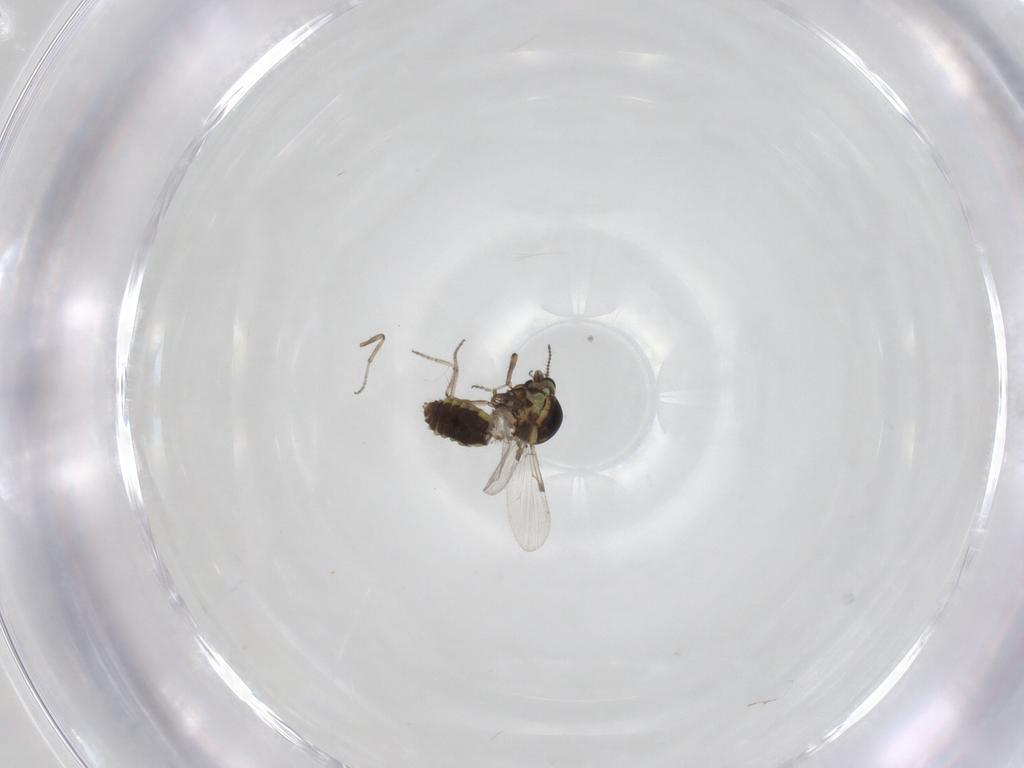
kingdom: Animalia
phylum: Arthropoda
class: Insecta
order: Diptera
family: Ceratopogonidae
